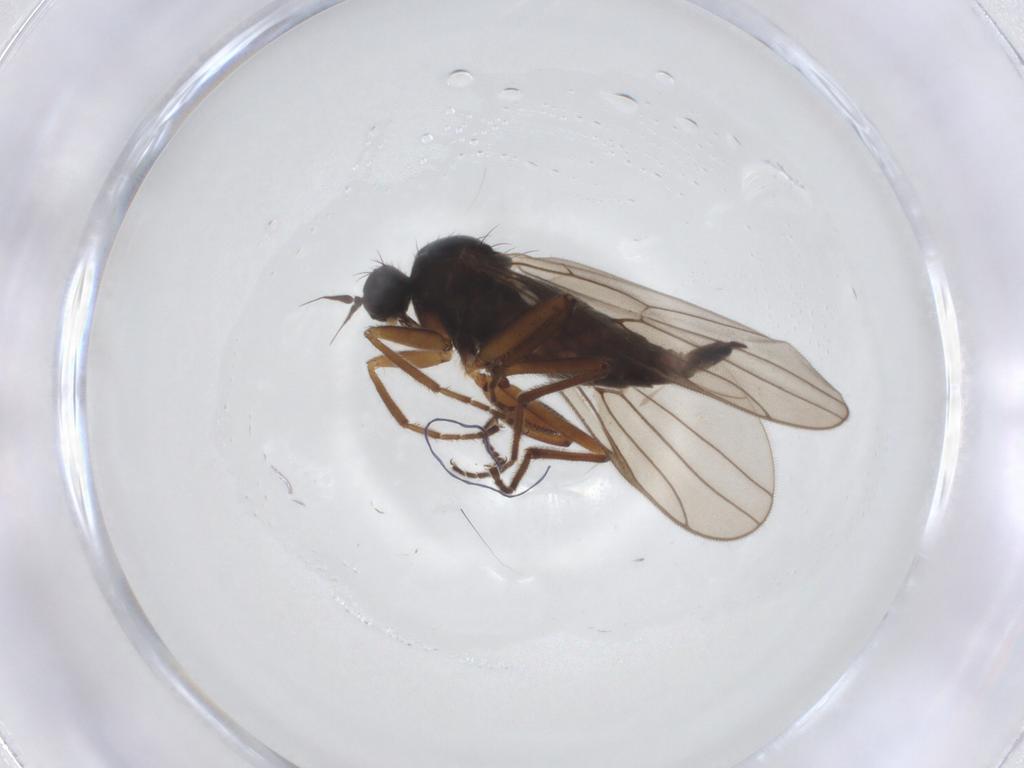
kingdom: Animalia
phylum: Arthropoda
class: Insecta
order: Diptera
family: Hybotidae
